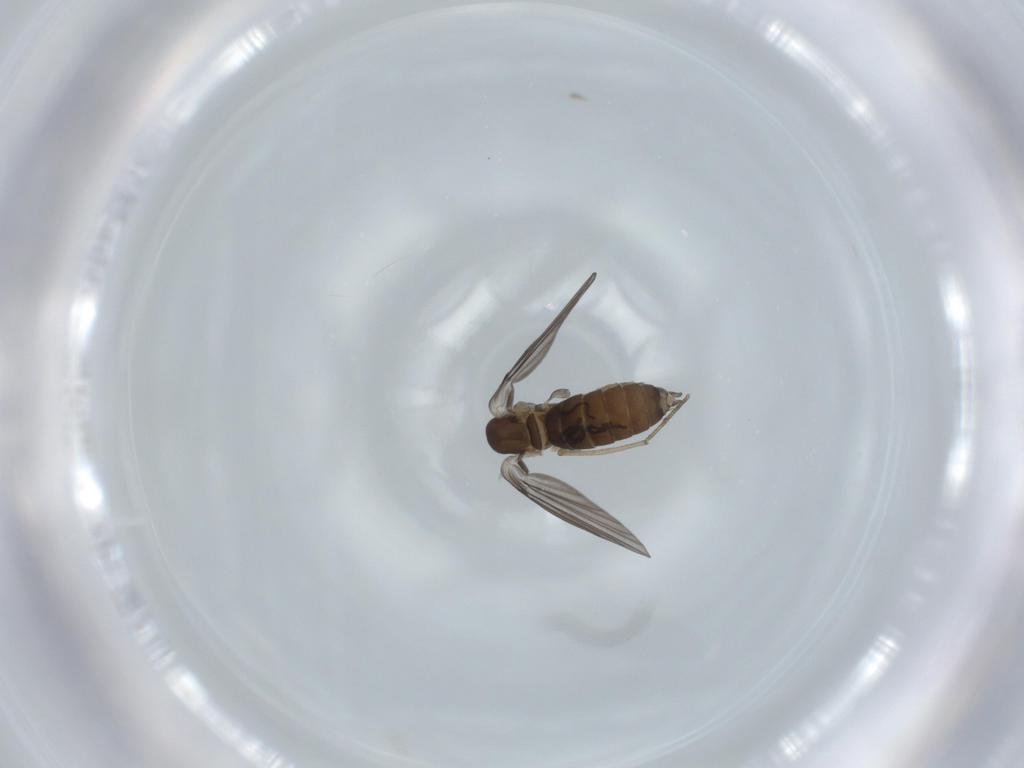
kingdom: Animalia
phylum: Arthropoda
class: Insecta
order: Diptera
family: Psychodidae
